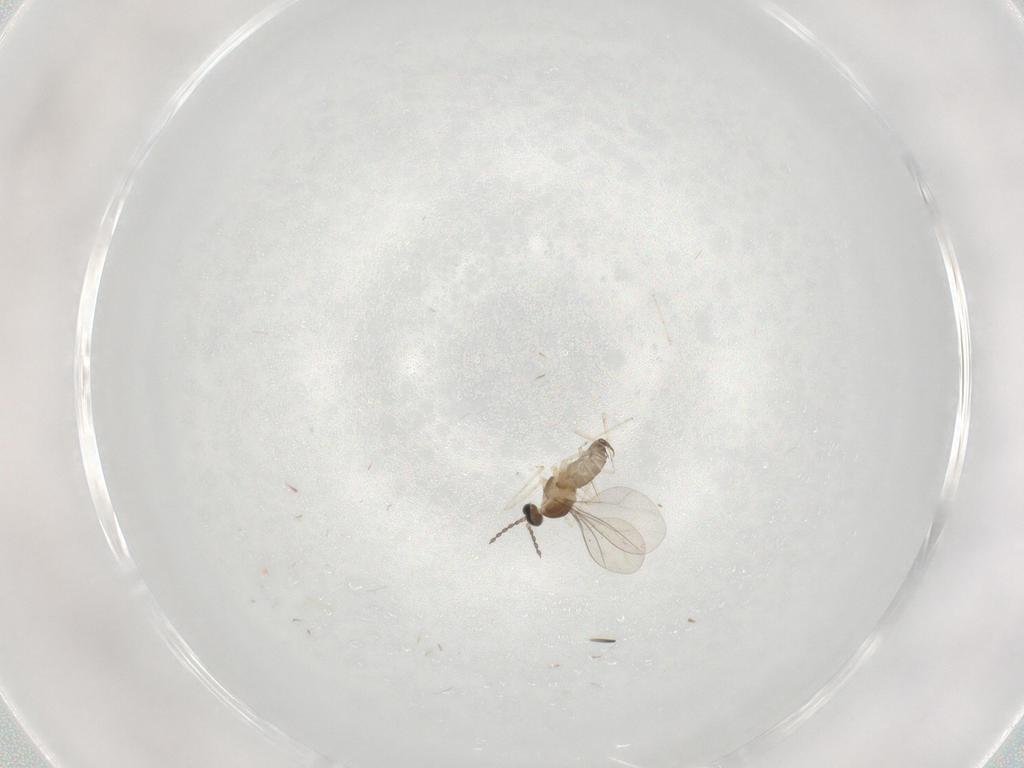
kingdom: Animalia
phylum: Arthropoda
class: Insecta
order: Diptera
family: Cecidomyiidae
